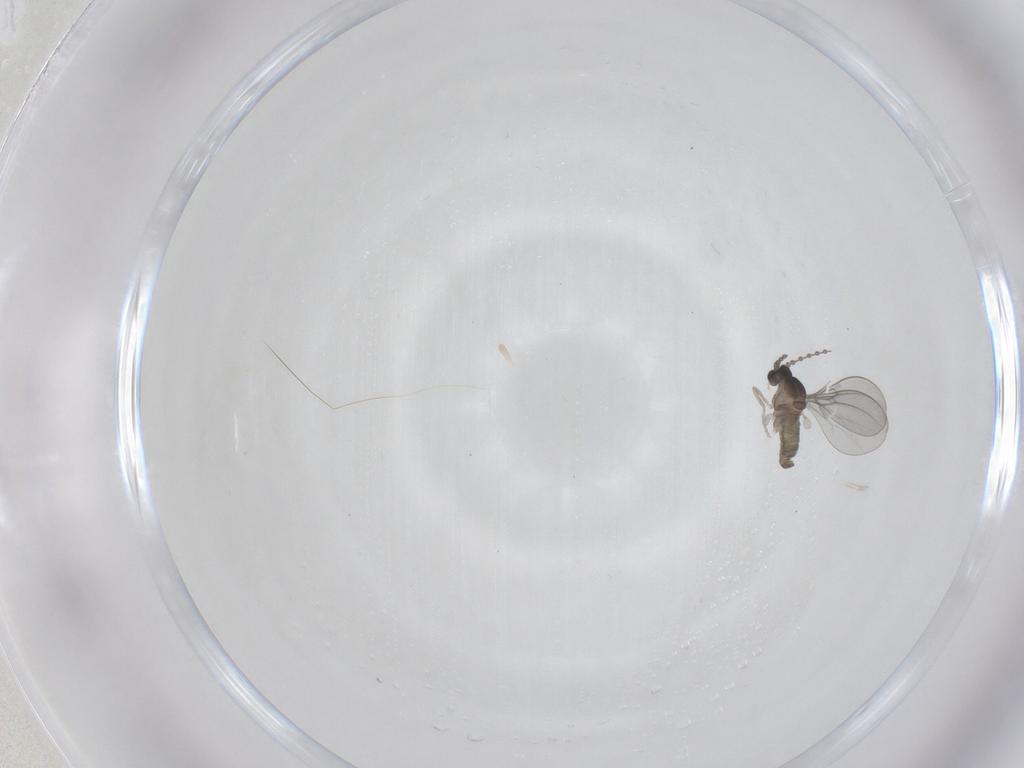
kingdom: Animalia
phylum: Arthropoda
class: Insecta
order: Diptera
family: Cecidomyiidae
